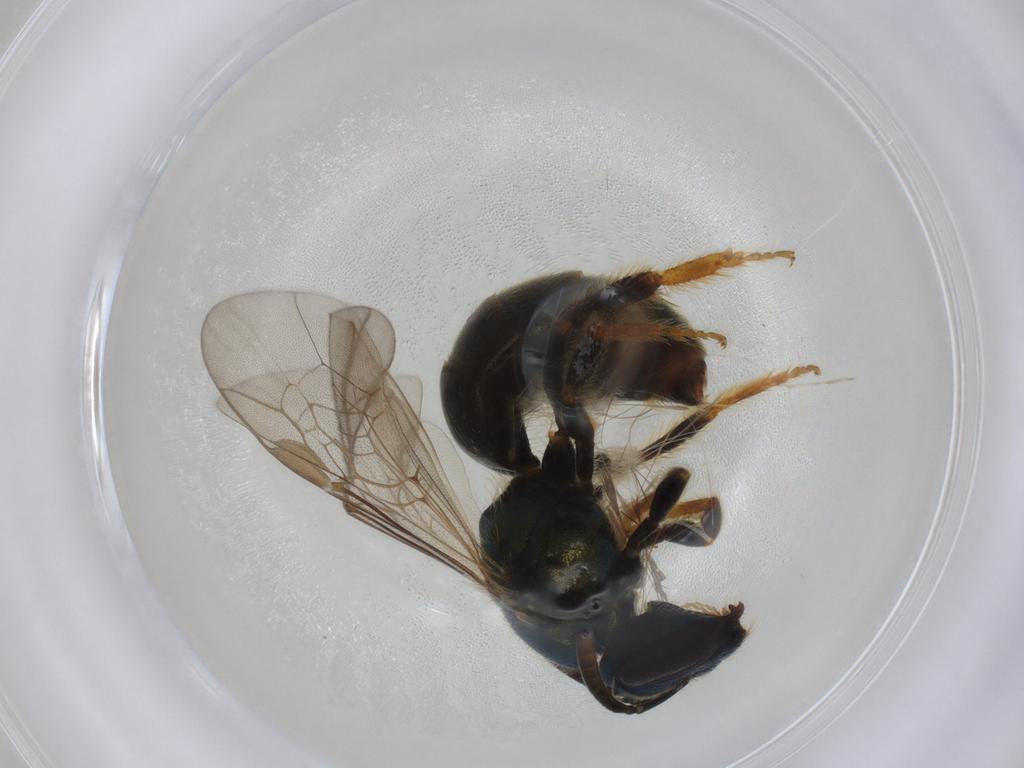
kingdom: Animalia
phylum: Arthropoda
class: Insecta
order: Hymenoptera
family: Halictidae
